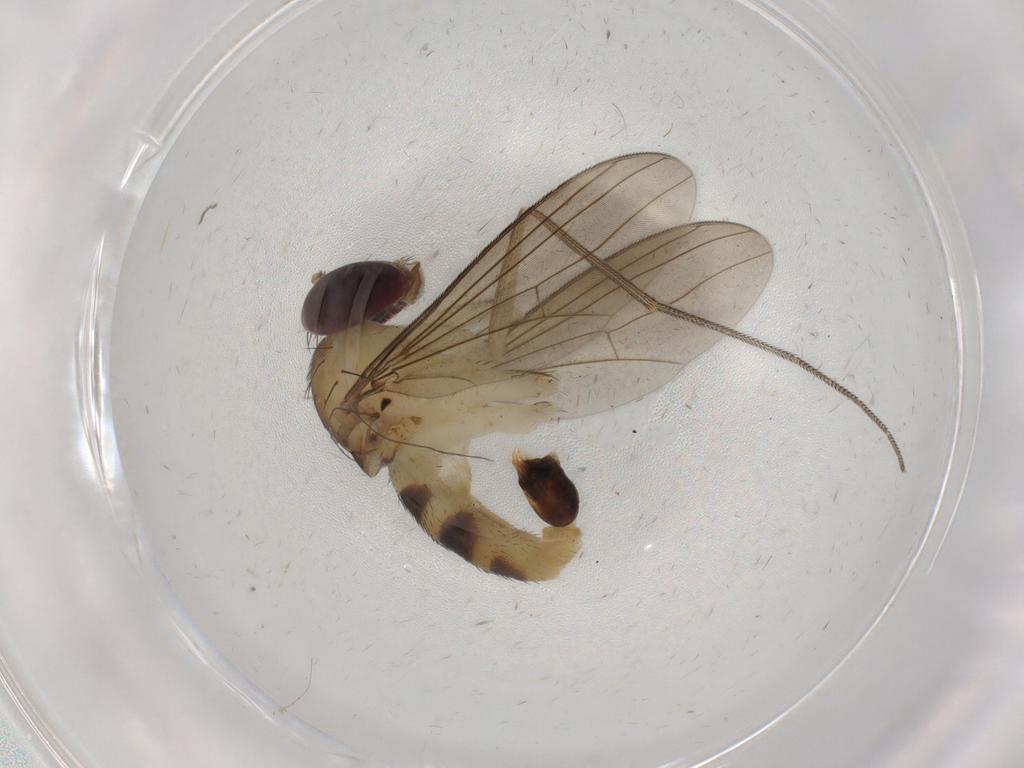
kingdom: Animalia
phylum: Arthropoda
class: Insecta
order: Diptera
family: Dolichopodidae
